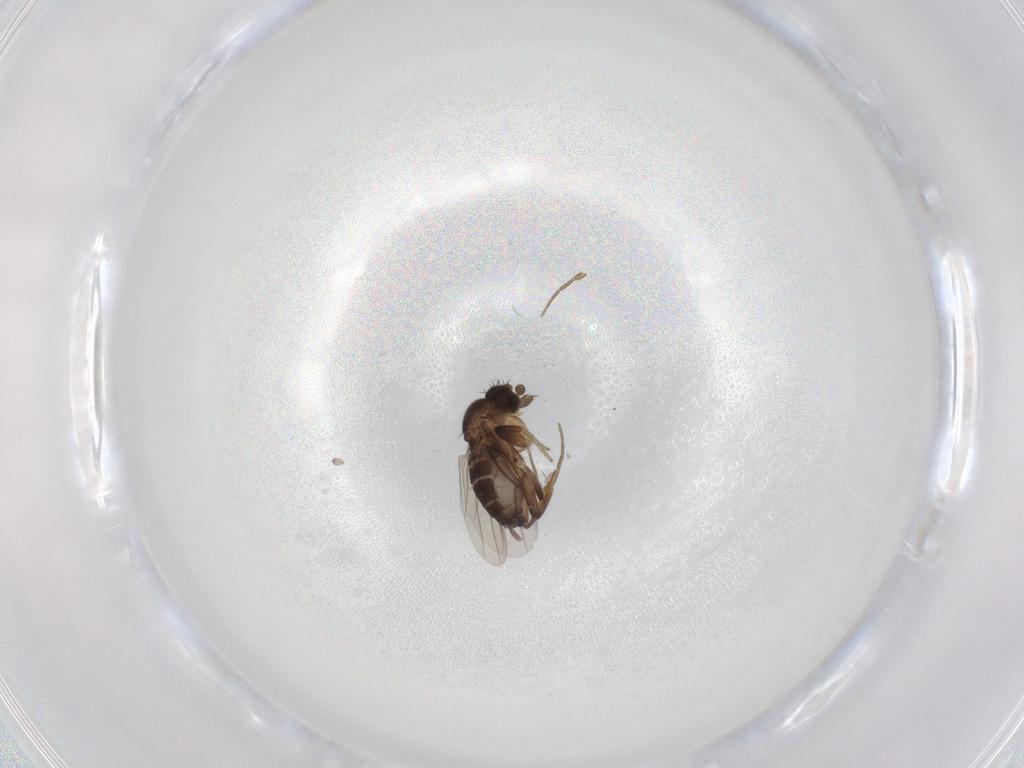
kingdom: Animalia
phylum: Arthropoda
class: Insecta
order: Diptera
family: Phoridae
